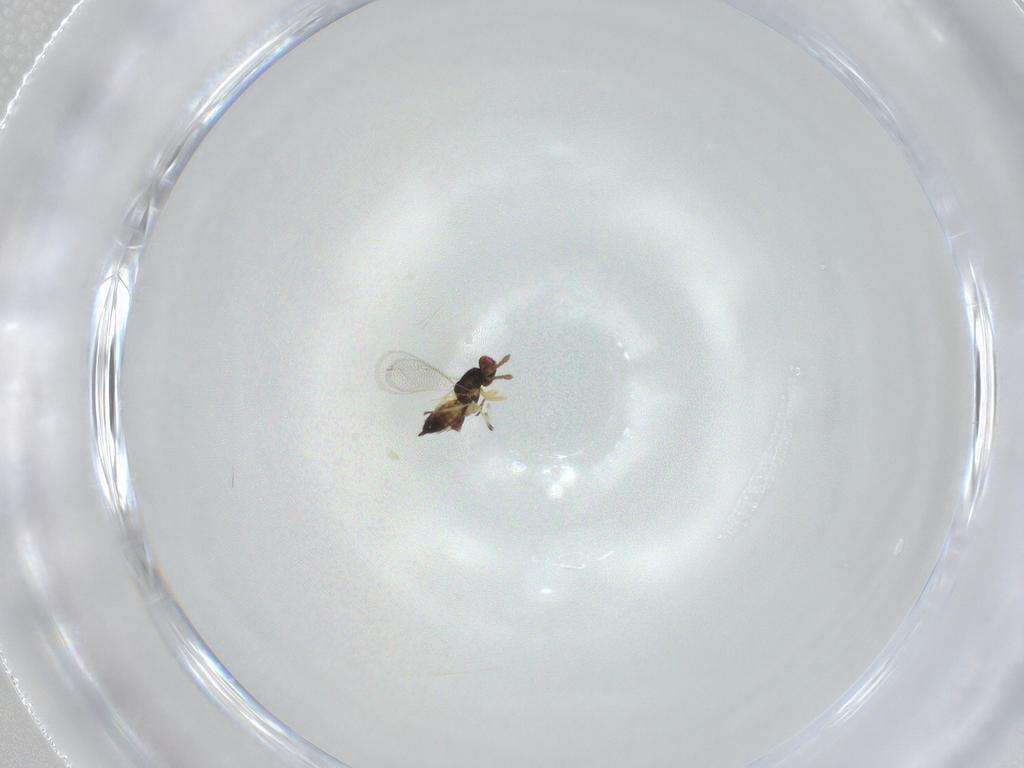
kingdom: Animalia
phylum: Arthropoda
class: Insecta
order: Hymenoptera
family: Eulophidae
